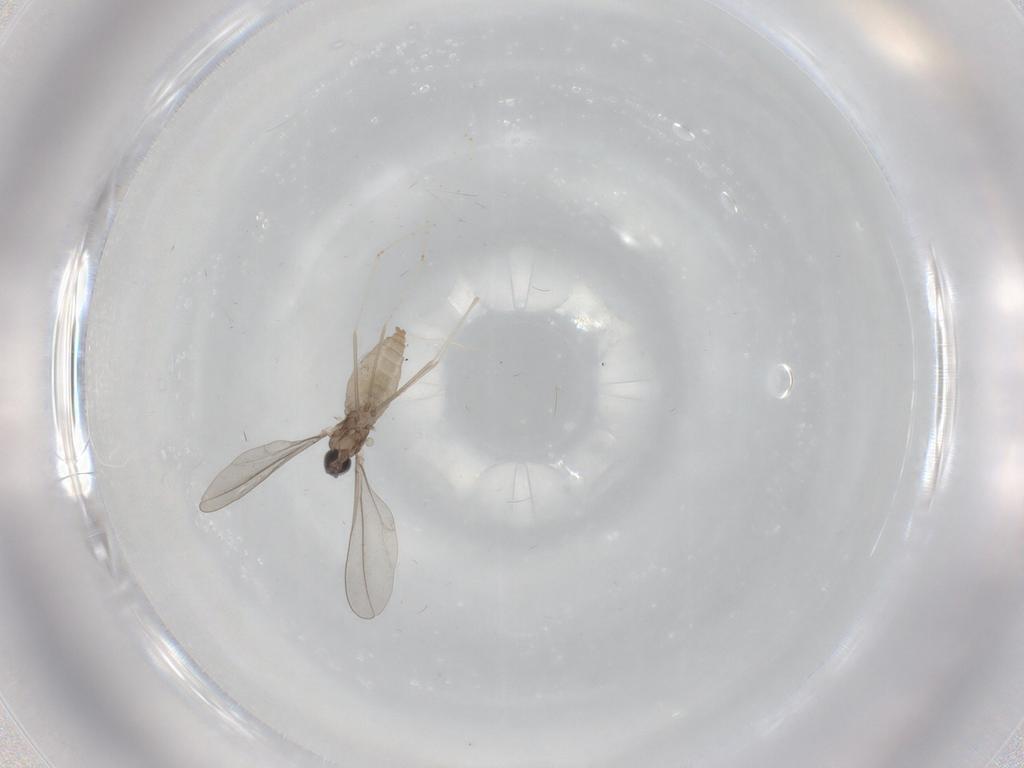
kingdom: Animalia
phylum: Arthropoda
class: Insecta
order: Diptera
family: Cecidomyiidae
